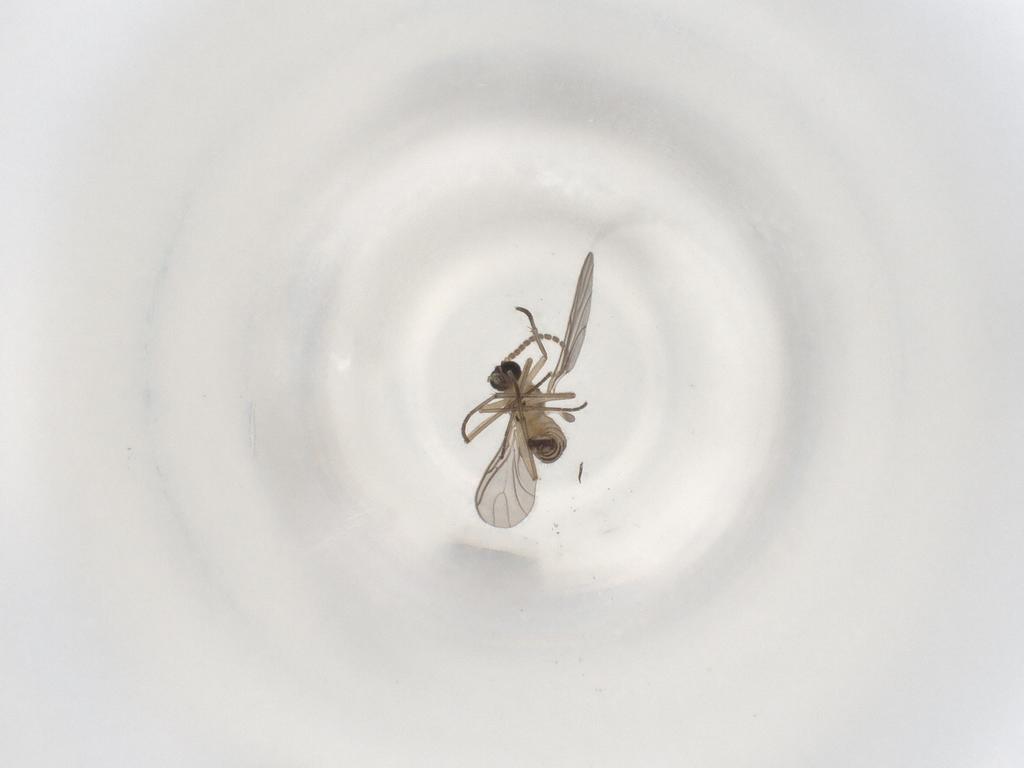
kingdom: Animalia
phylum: Arthropoda
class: Insecta
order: Diptera
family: Sciaridae
